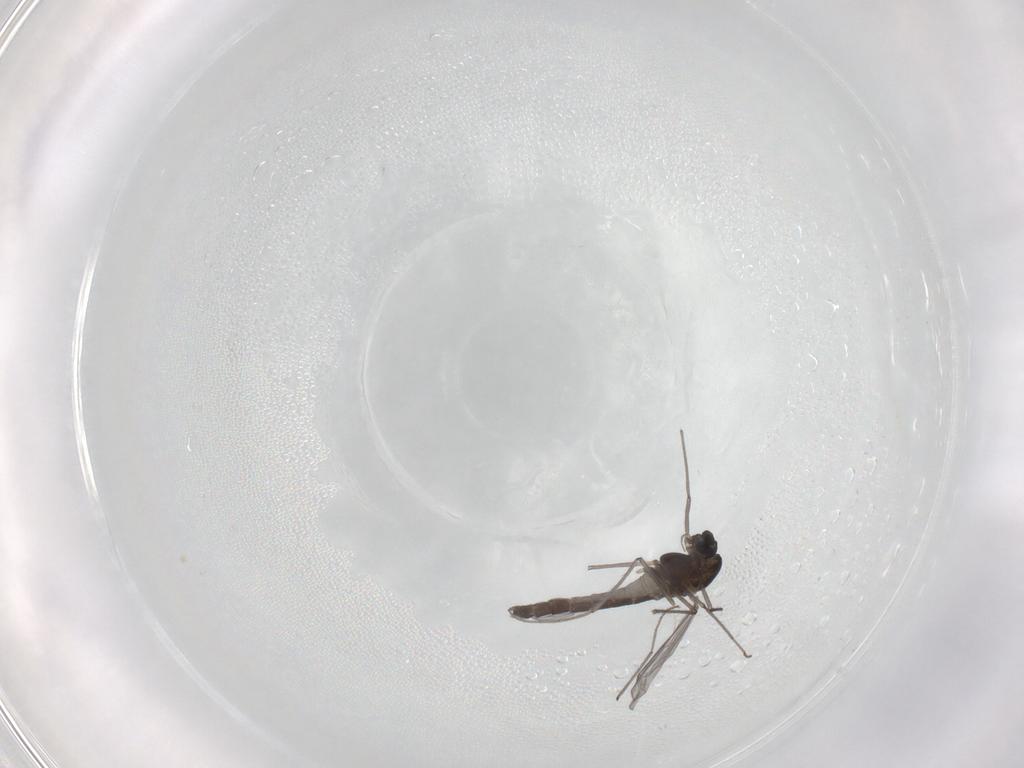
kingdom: Animalia
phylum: Arthropoda
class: Insecta
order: Diptera
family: Chironomidae
